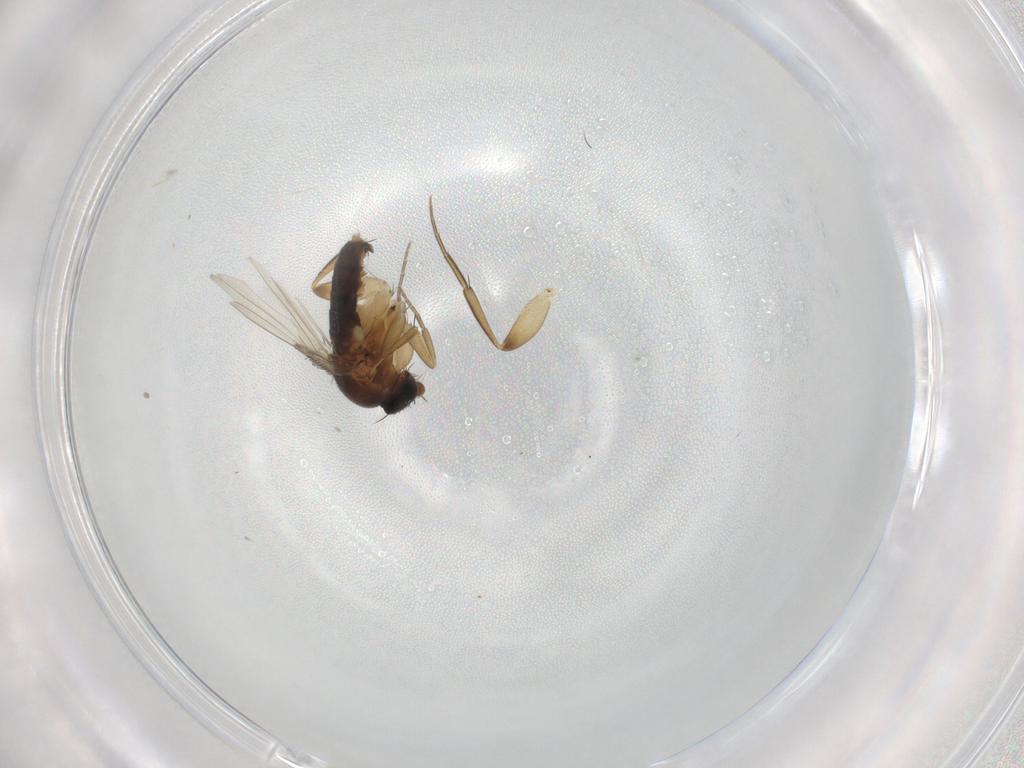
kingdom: Animalia
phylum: Arthropoda
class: Insecta
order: Diptera
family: Phoridae
